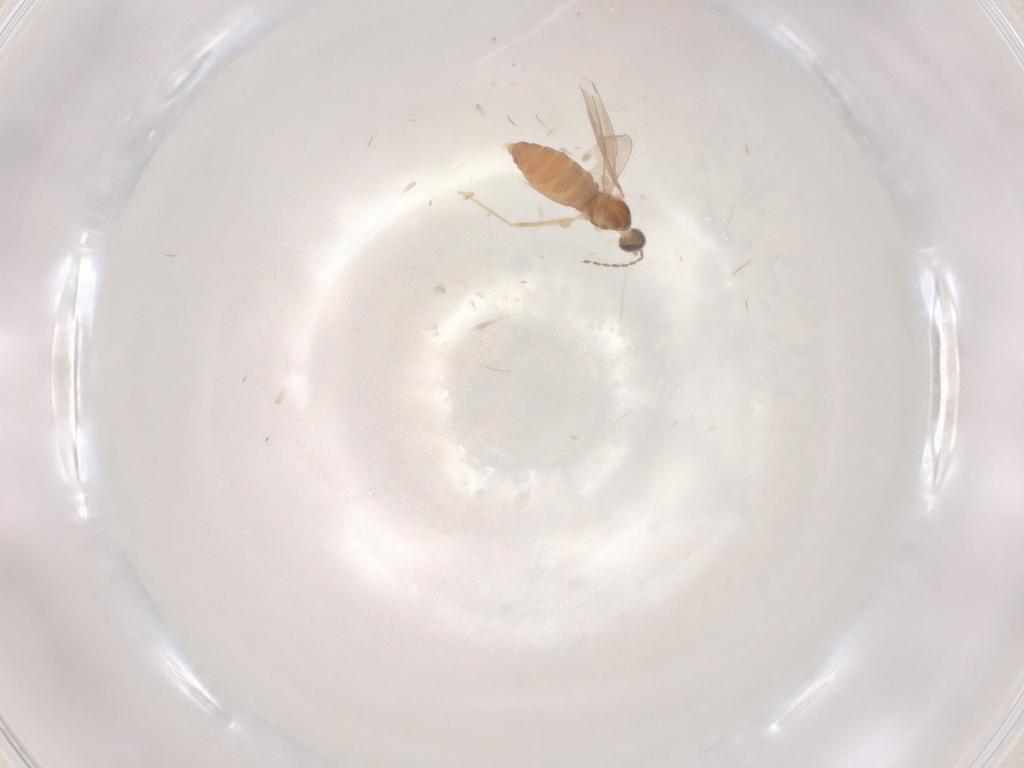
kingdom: Animalia
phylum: Arthropoda
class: Insecta
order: Diptera
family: Cecidomyiidae
